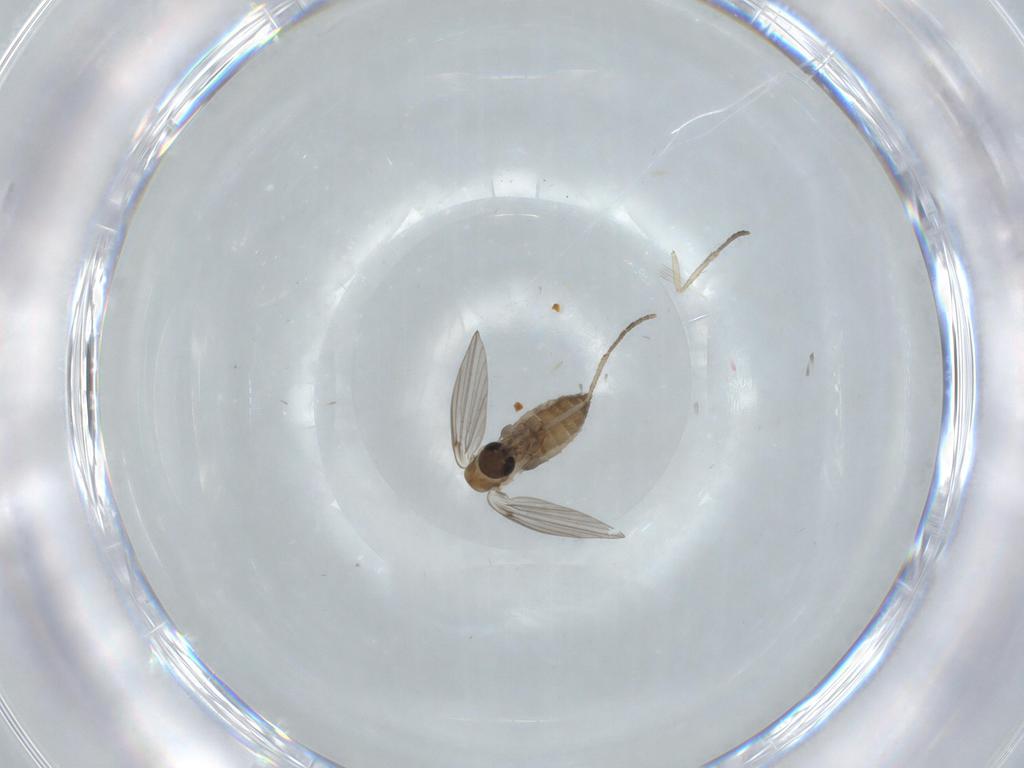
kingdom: Animalia
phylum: Arthropoda
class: Insecta
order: Diptera
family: Psychodidae
